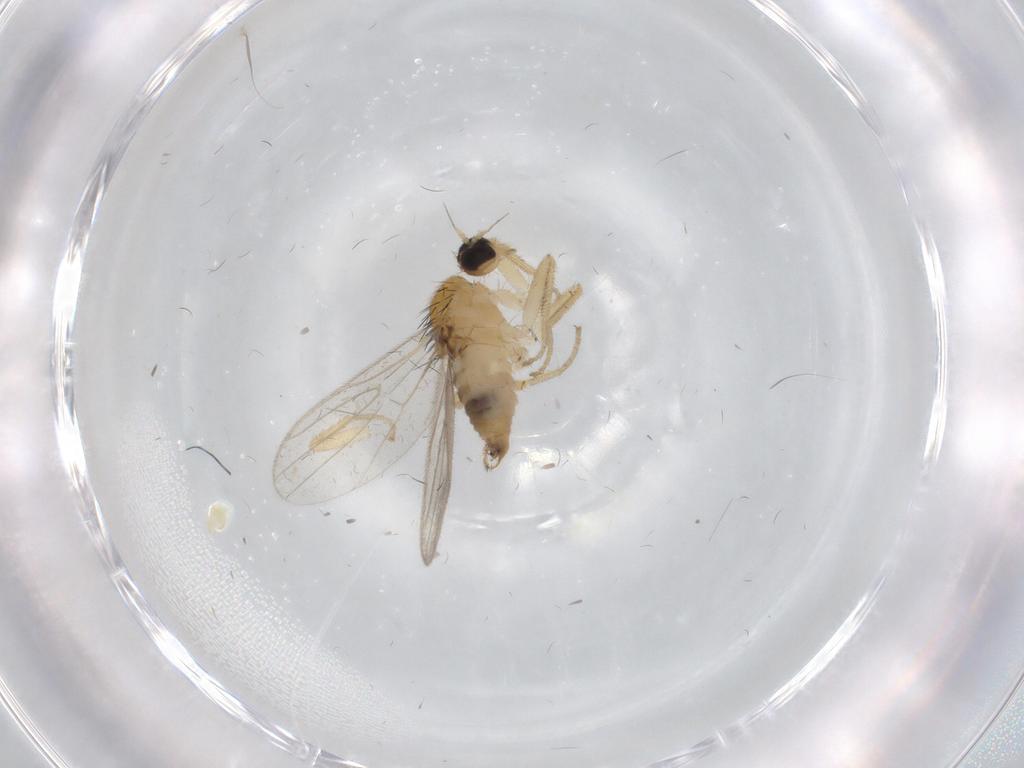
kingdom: Animalia
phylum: Arthropoda
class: Insecta
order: Diptera
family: Hybotidae
